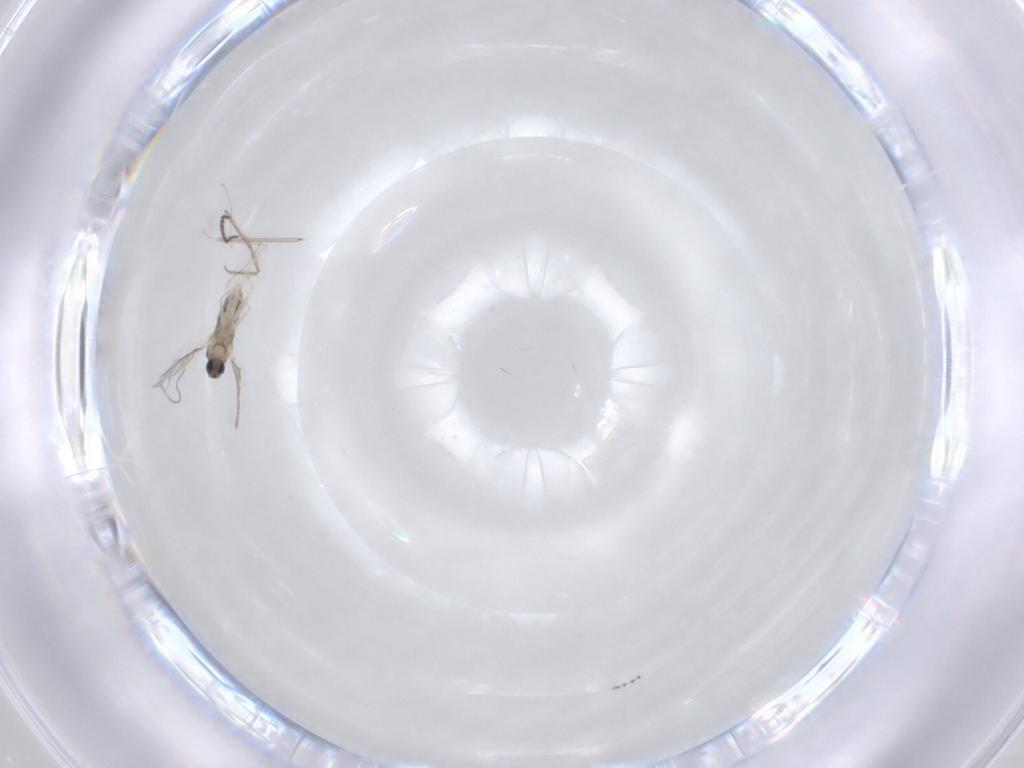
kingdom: Animalia
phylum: Arthropoda
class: Insecta
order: Diptera
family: Cecidomyiidae
